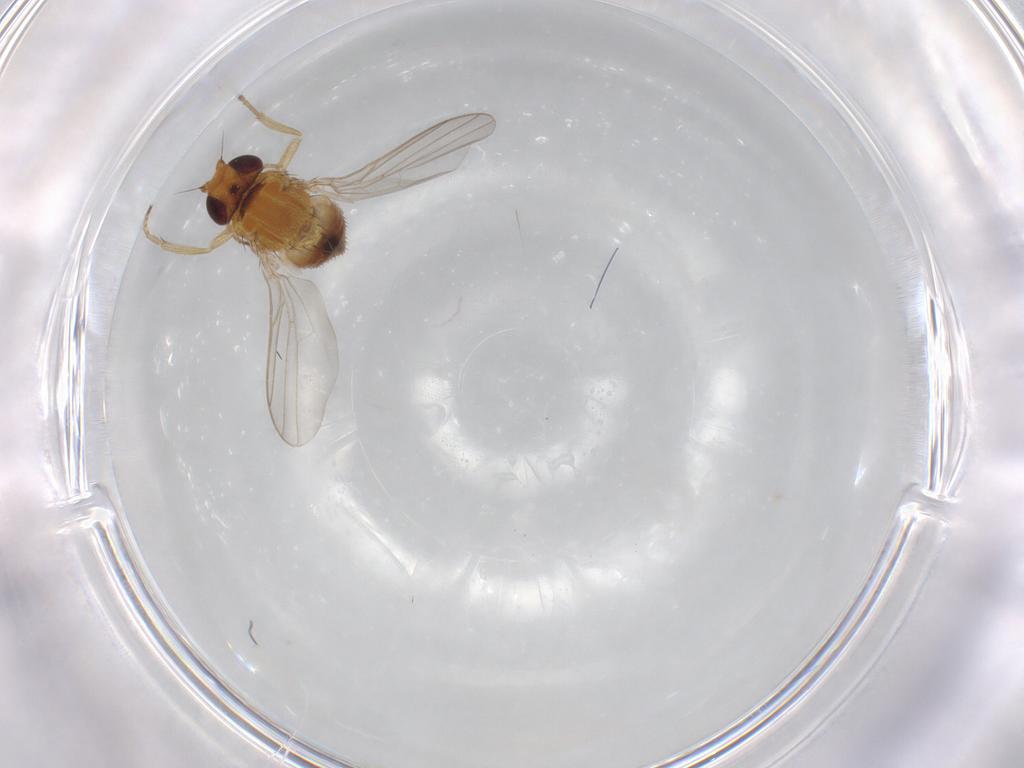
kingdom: Animalia
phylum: Arthropoda
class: Insecta
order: Diptera
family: Chloropidae
